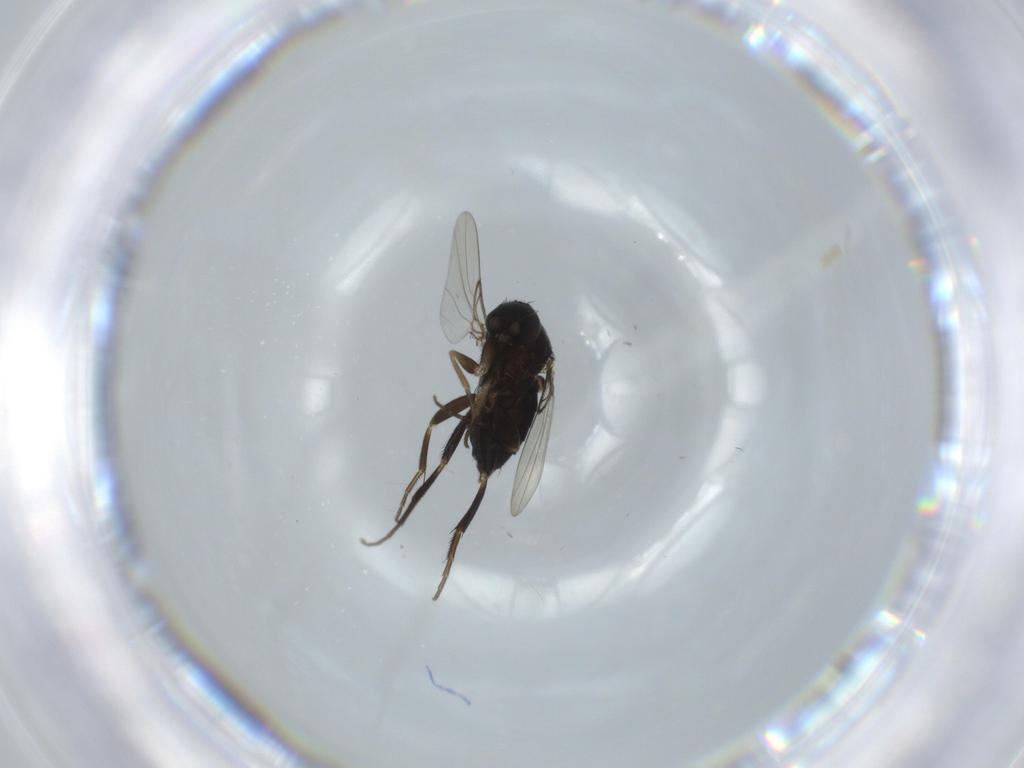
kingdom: Animalia
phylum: Arthropoda
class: Insecta
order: Diptera
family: Phoridae
